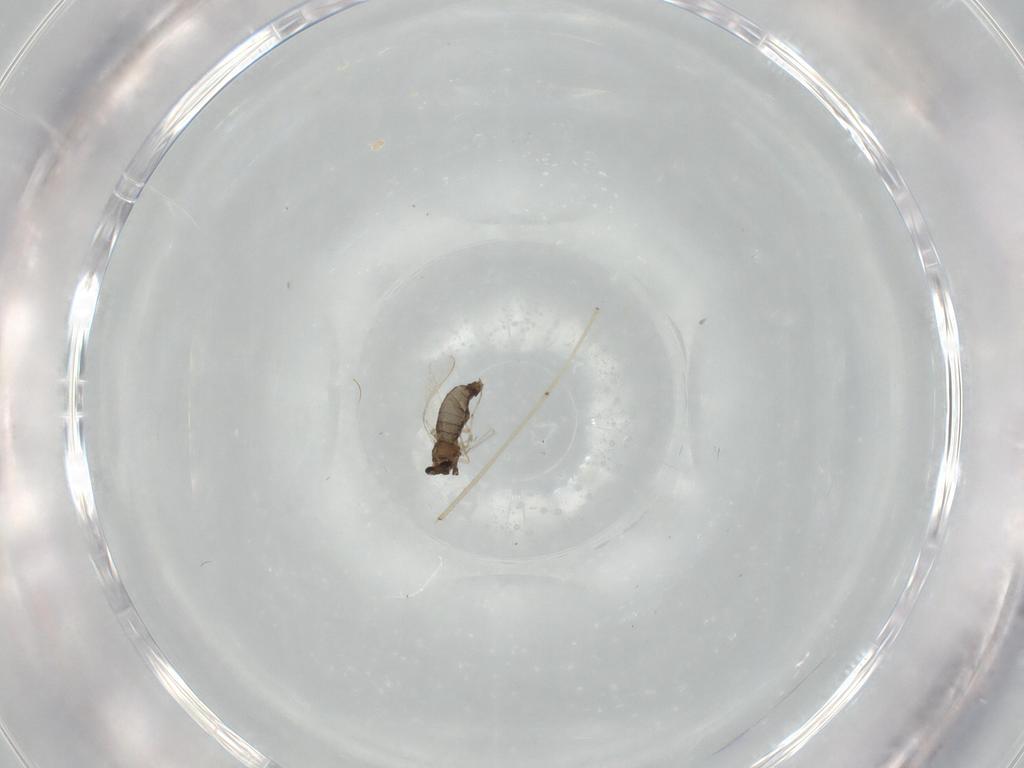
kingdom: Animalia
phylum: Arthropoda
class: Insecta
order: Diptera
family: Chironomidae
